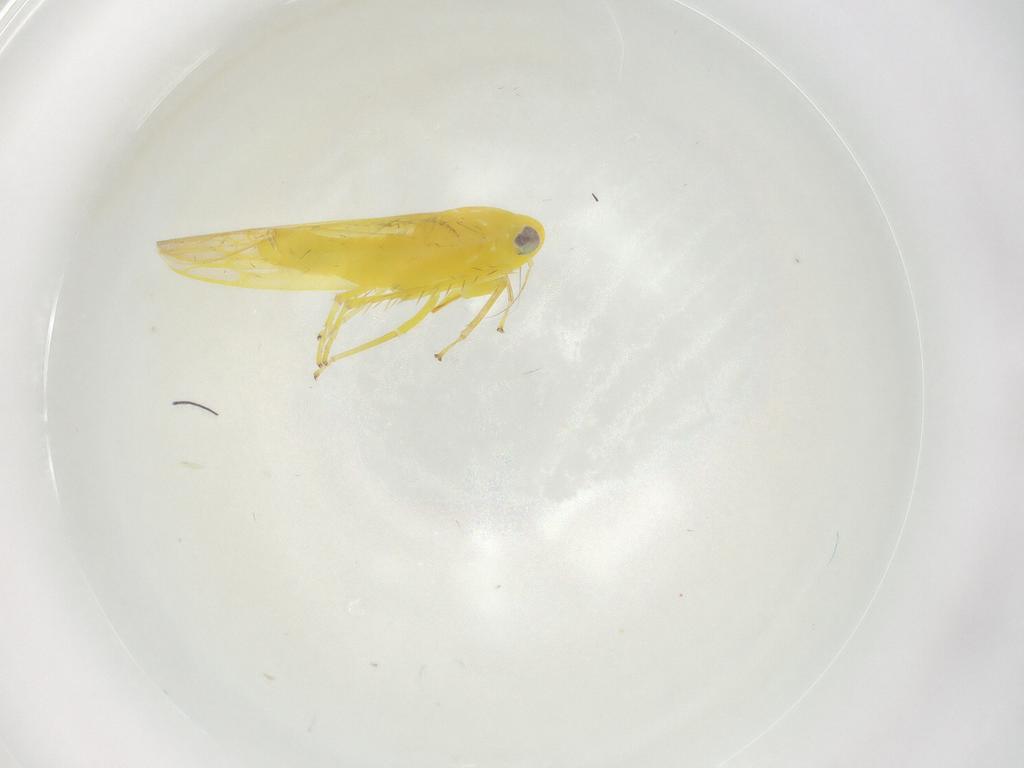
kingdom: Animalia
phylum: Arthropoda
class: Insecta
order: Hemiptera
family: Cicadellidae
